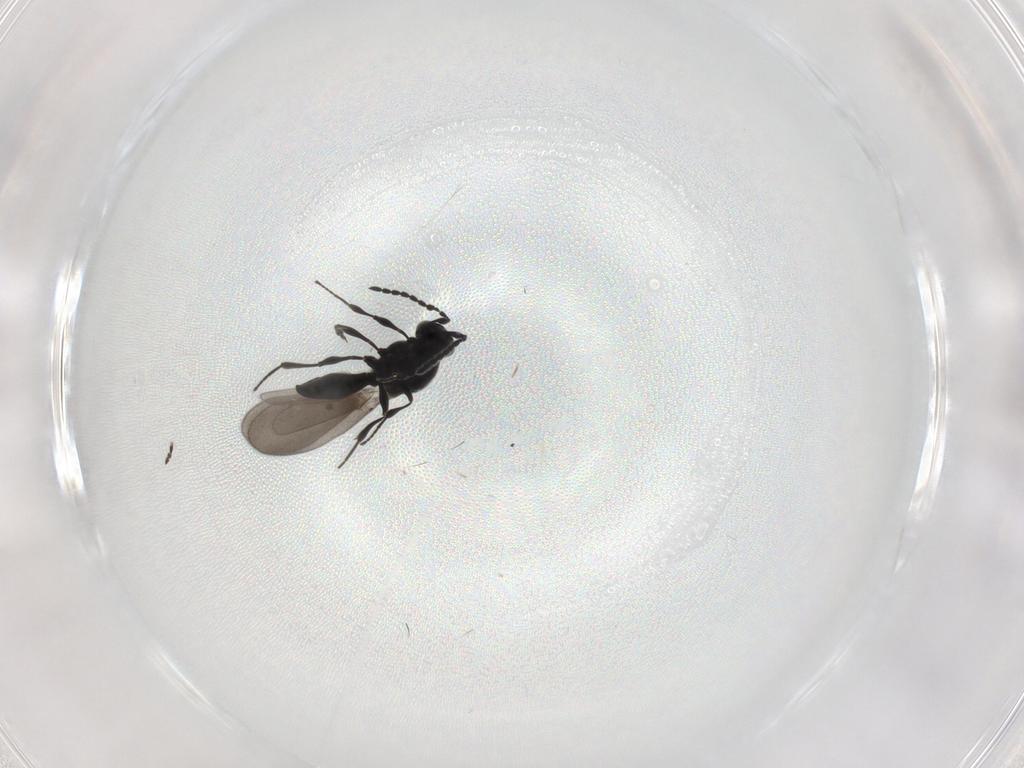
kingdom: Animalia
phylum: Arthropoda
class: Insecta
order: Hymenoptera
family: Platygastridae
